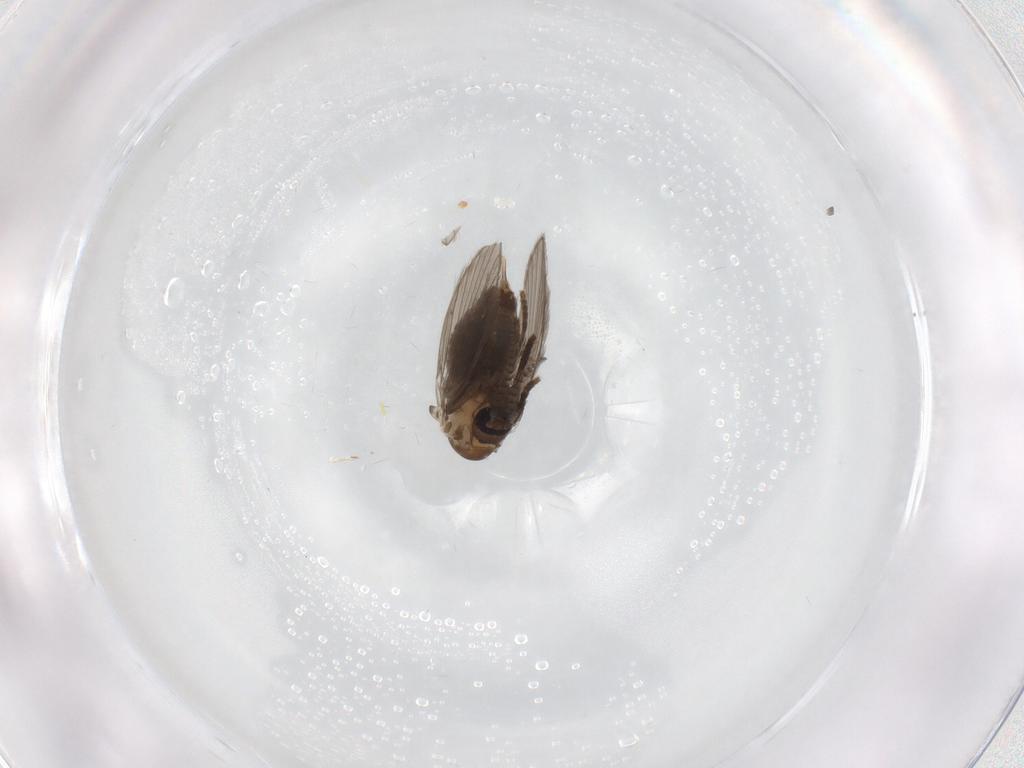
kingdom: Animalia
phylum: Arthropoda
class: Insecta
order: Diptera
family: Psychodidae
